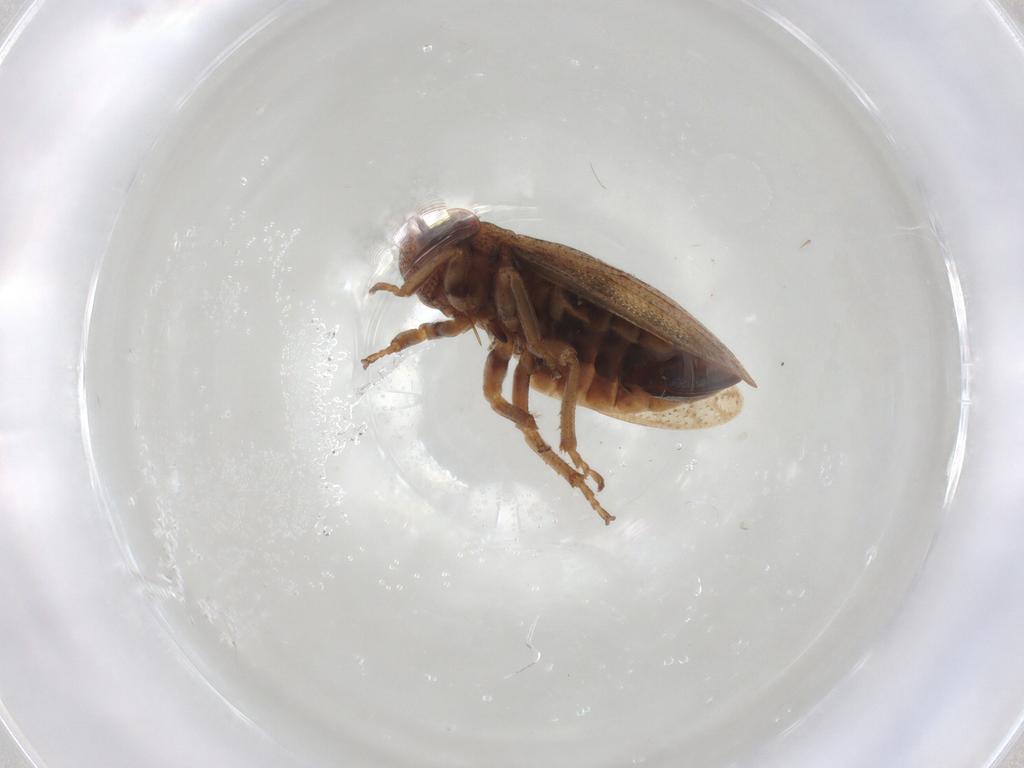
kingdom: Animalia
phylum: Arthropoda
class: Insecta
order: Hemiptera
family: Cicadellidae
